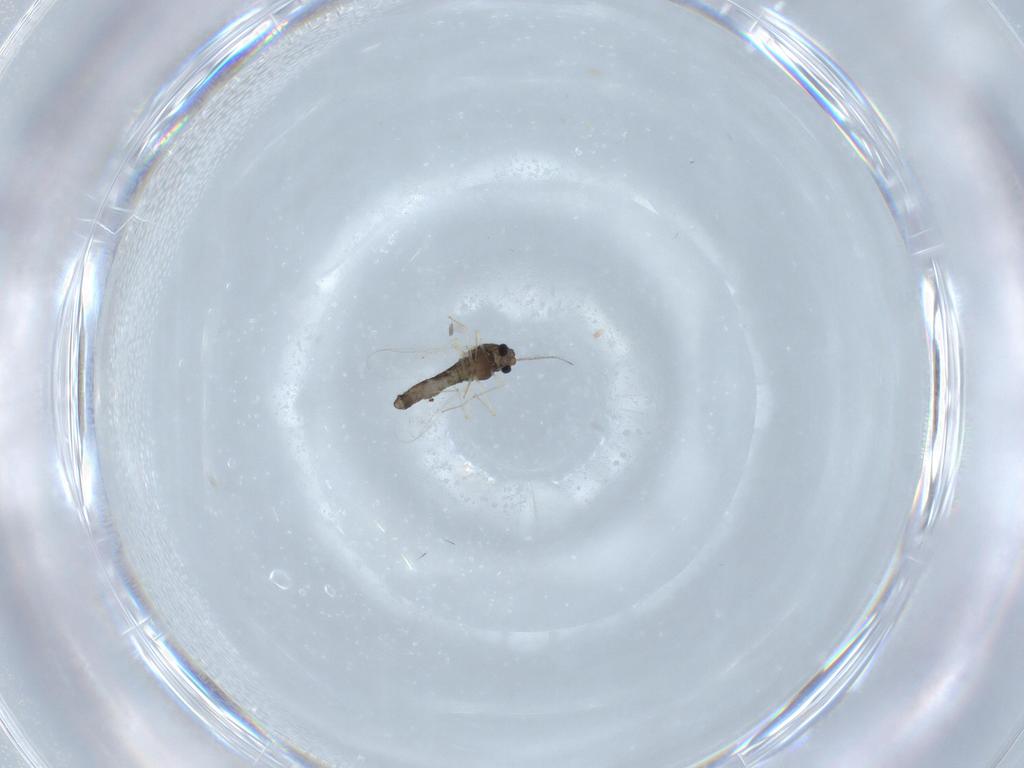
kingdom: Animalia
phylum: Arthropoda
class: Insecta
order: Diptera
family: Chironomidae
